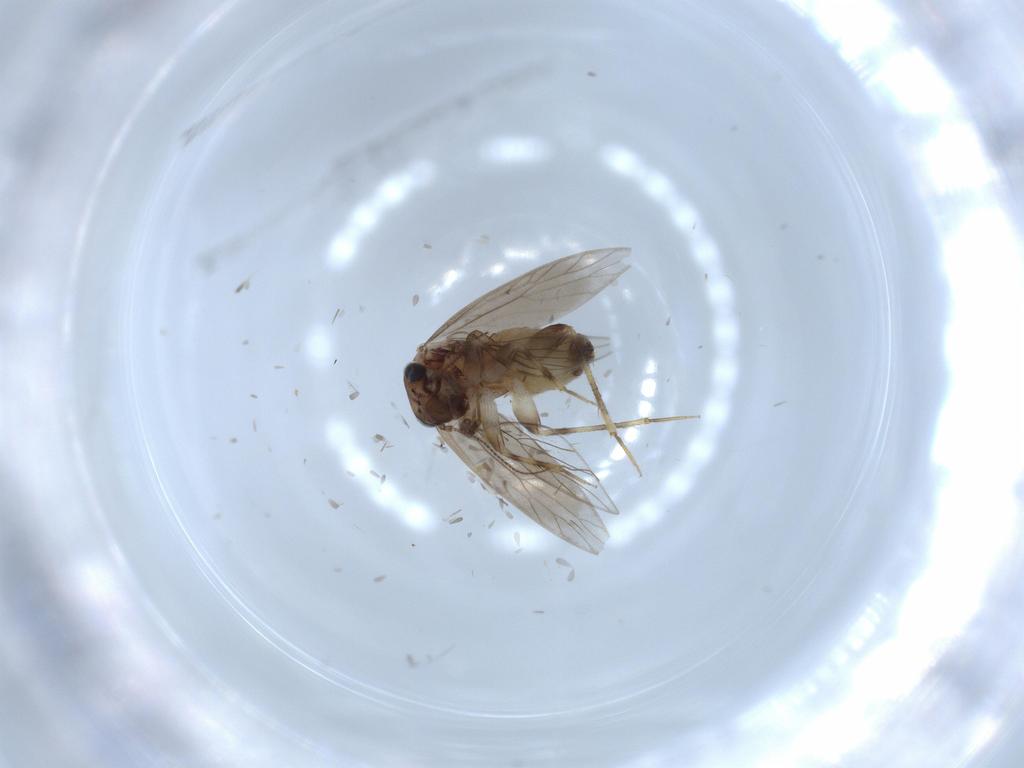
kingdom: Animalia
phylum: Arthropoda
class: Insecta
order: Psocodea
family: Lepidopsocidae
